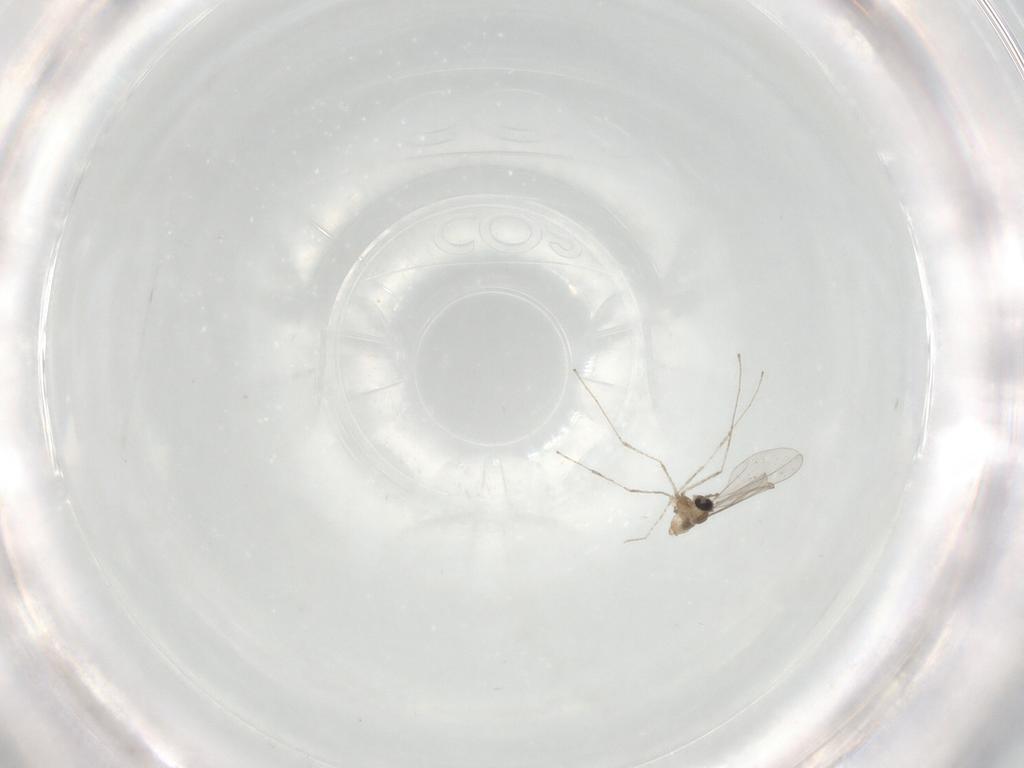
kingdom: Animalia
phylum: Arthropoda
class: Insecta
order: Diptera
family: Cecidomyiidae
